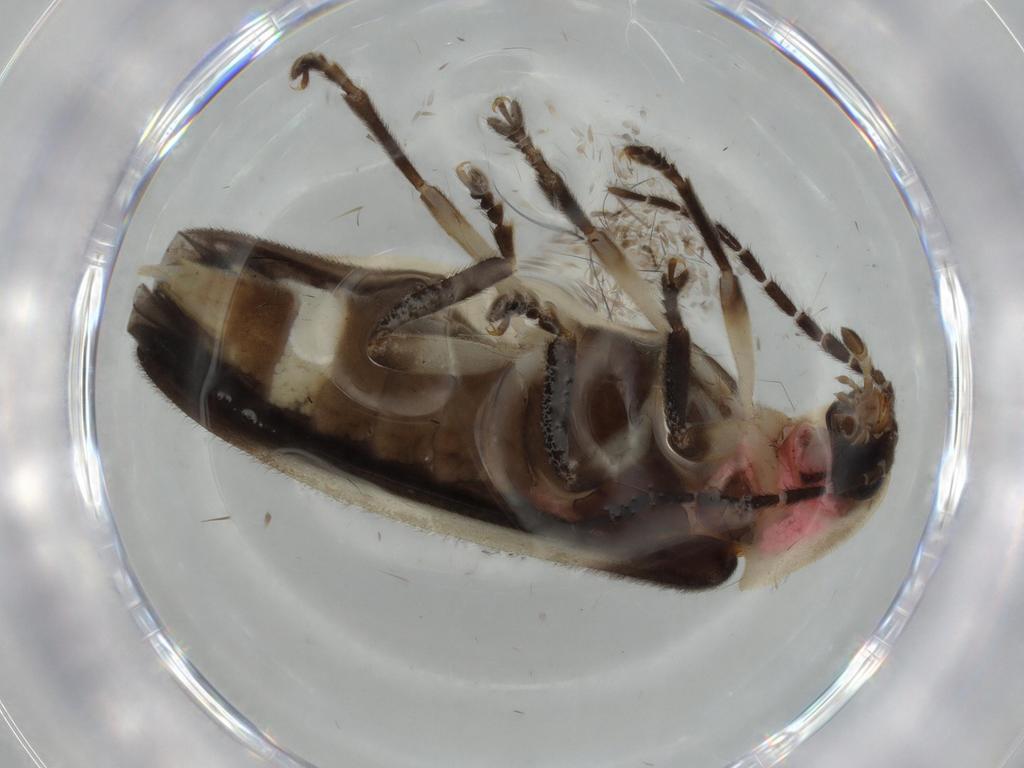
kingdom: Animalia
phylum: Arthropoda
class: Insecta
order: Coleoptera
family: Lampyridae
